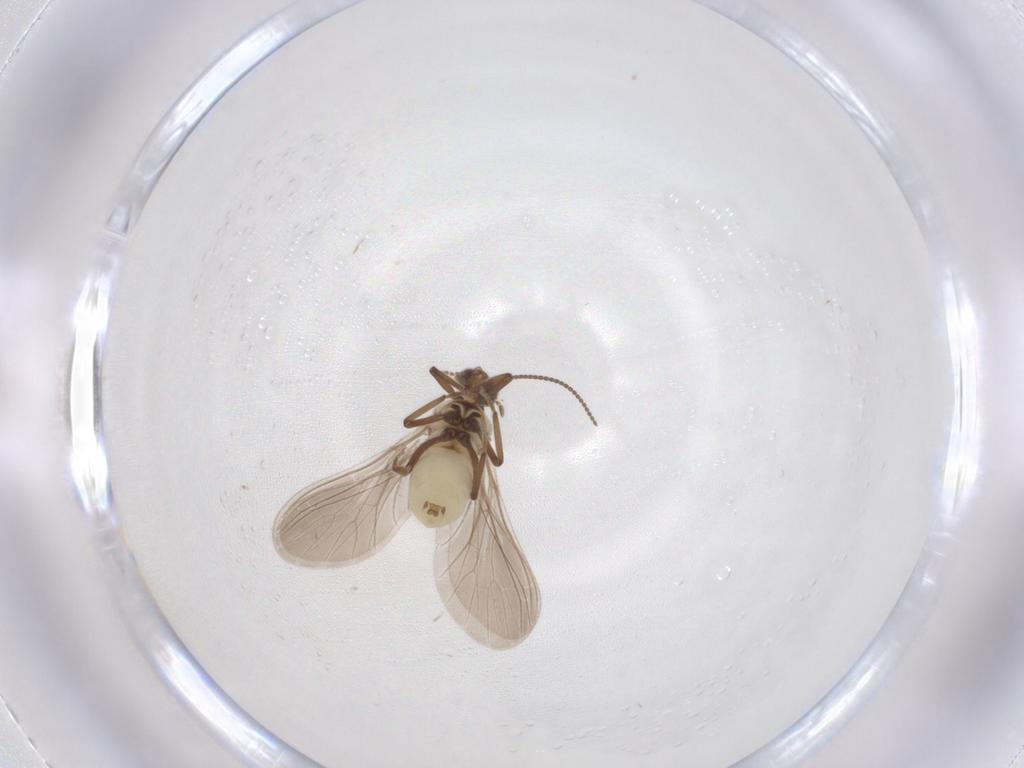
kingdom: Animalia
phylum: Arthropoda
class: Insecta
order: Neuroptera
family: Coniopterygidae
